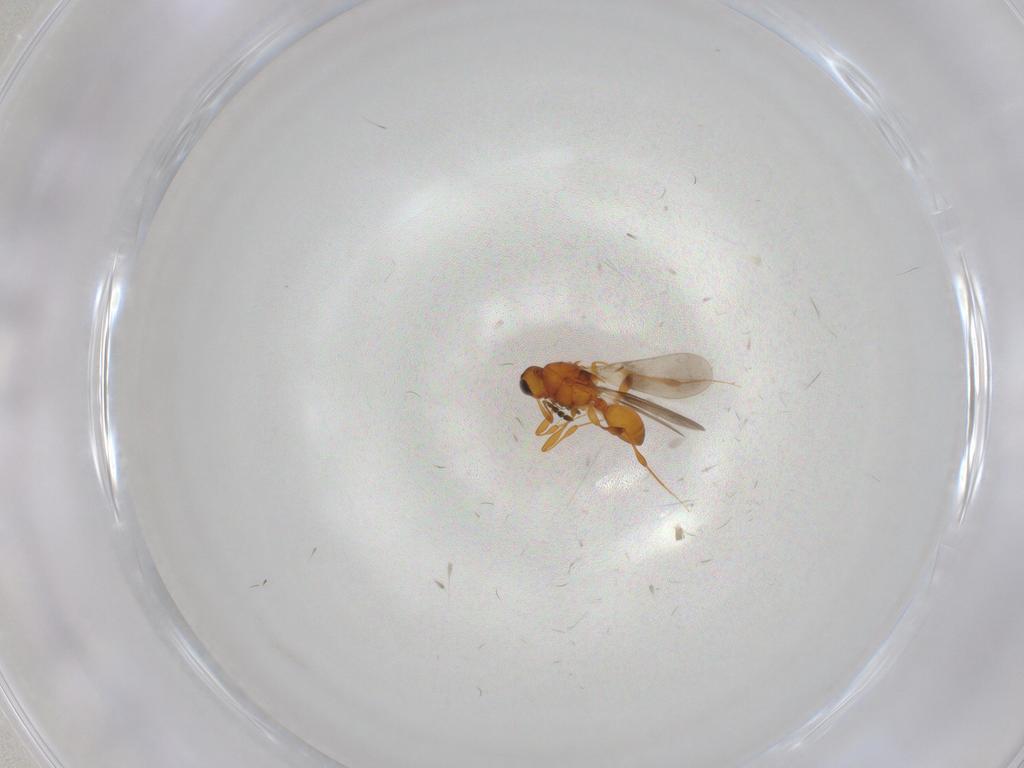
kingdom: Animalia
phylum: Arthropoda
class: Insecta
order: Hymenoptera
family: Platygastridae
